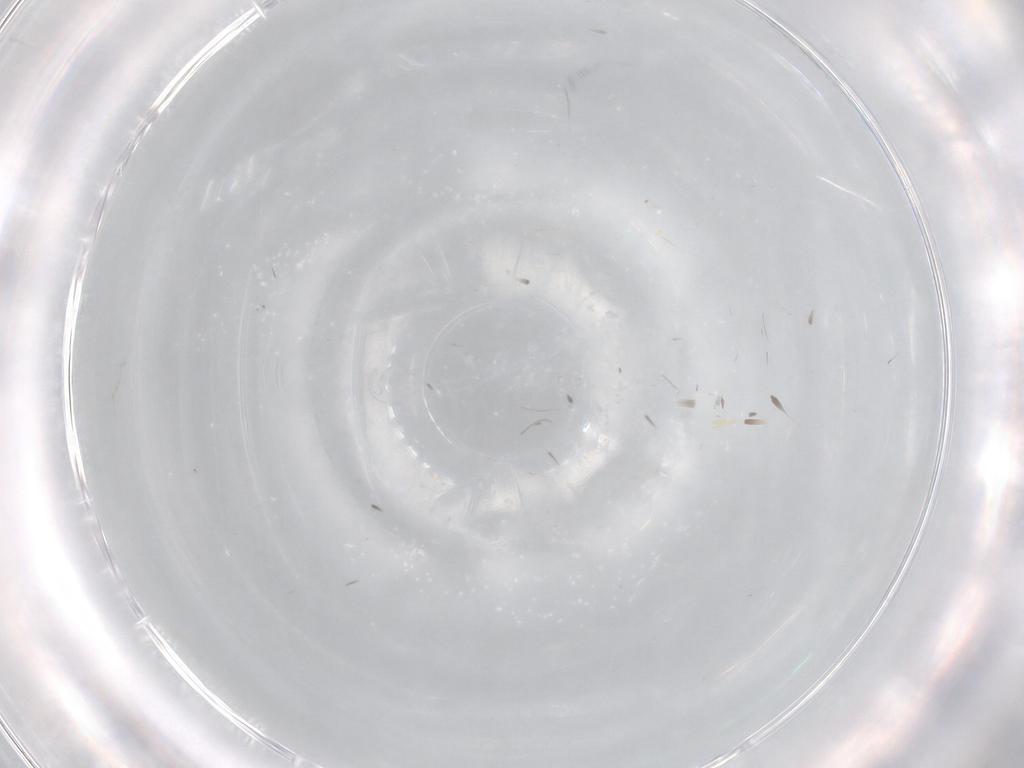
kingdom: Animalia
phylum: Arthropoda
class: Insecta
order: Diptera
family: Chironomidae
